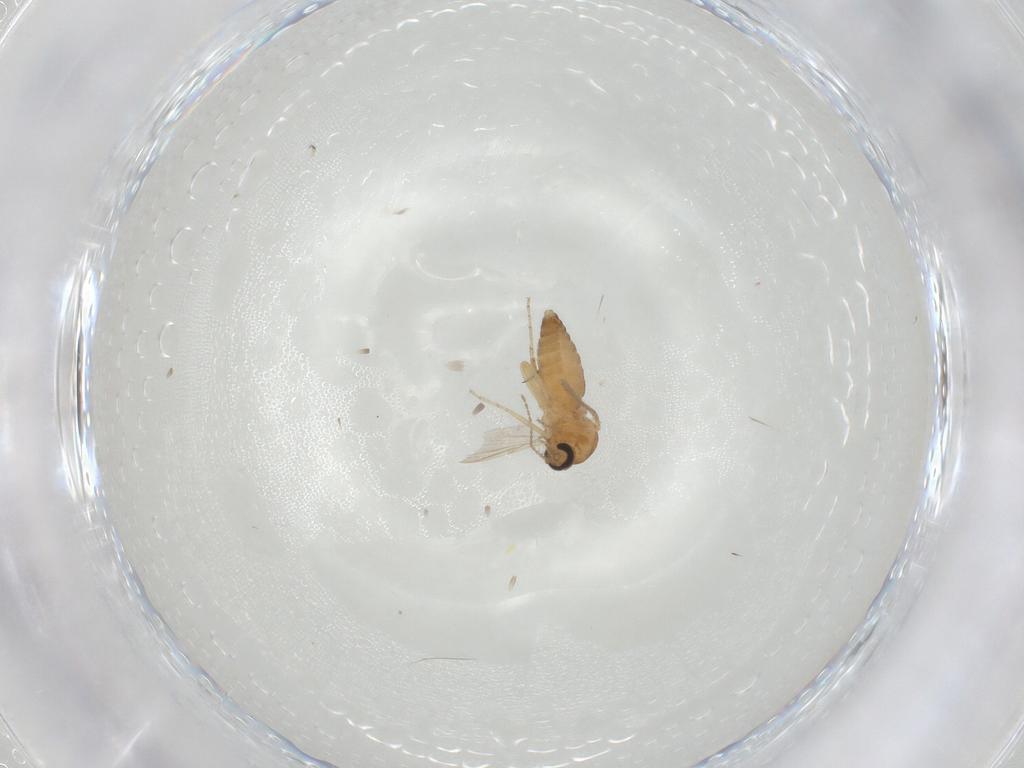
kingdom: Animalia
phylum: Arthropoda
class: Insecta
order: Diptera
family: Ceratopogonidae
